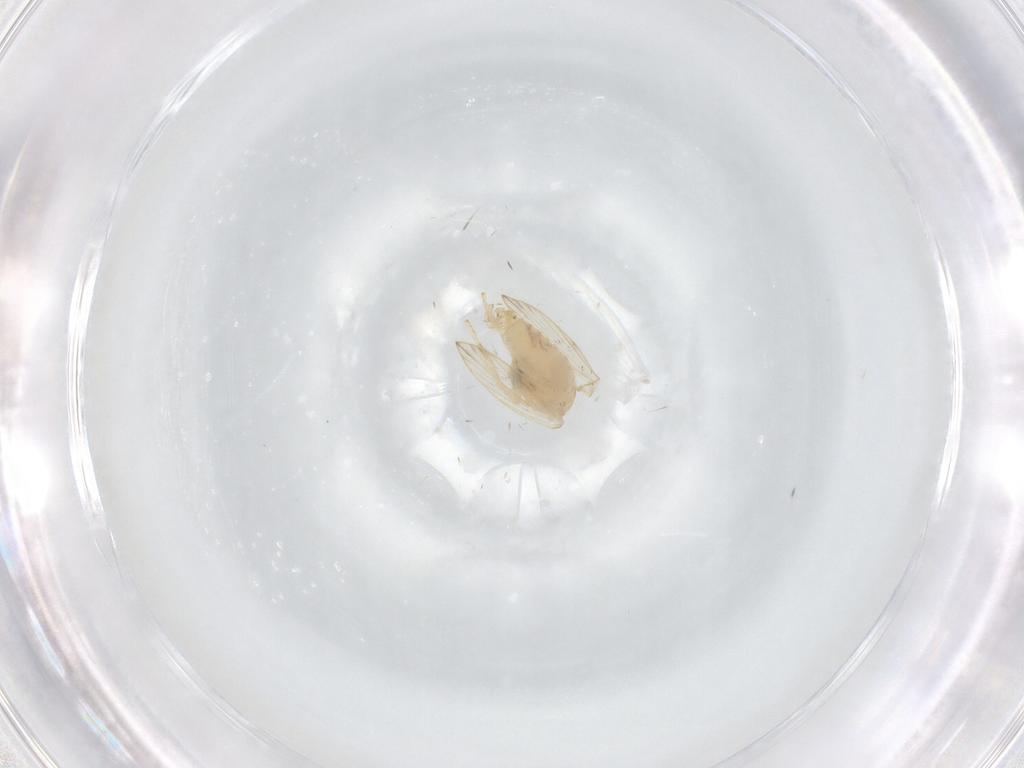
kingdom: Animalia
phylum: Arthropoda
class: Insecta
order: Diptera
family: Psychodidae
